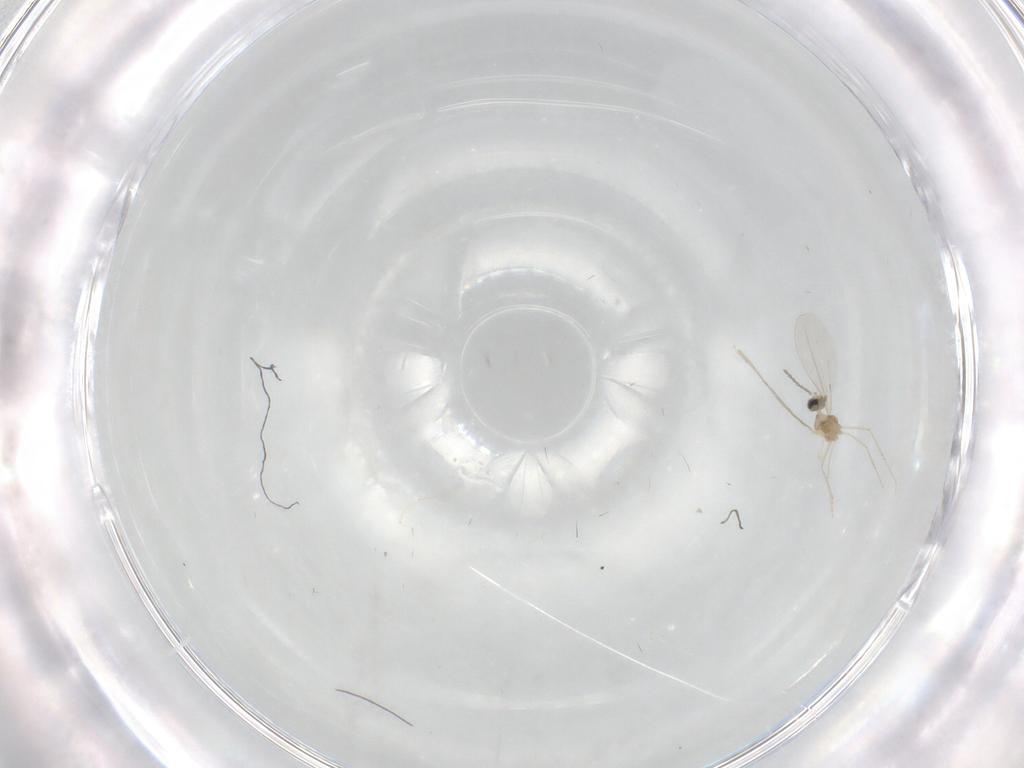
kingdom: Animalia
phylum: Arthropoda
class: Insecta
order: Diptera
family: Cecidomyiidae
